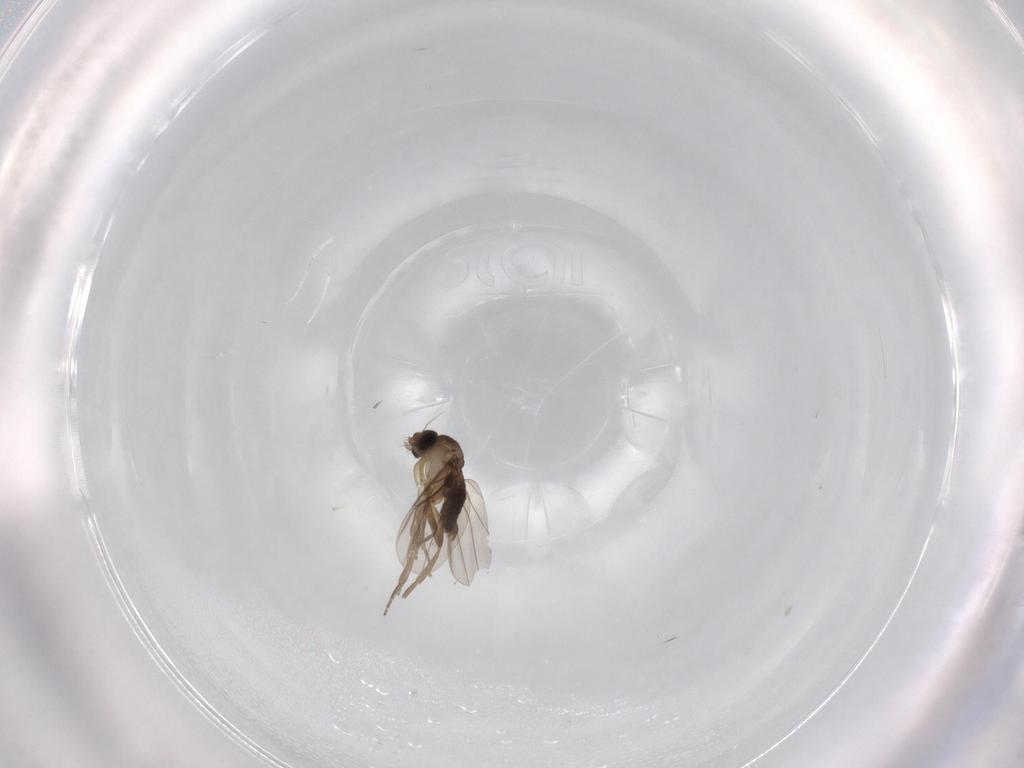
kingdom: Animalia
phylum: Arthropoda
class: Insecta
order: Diptera
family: Phoridae
